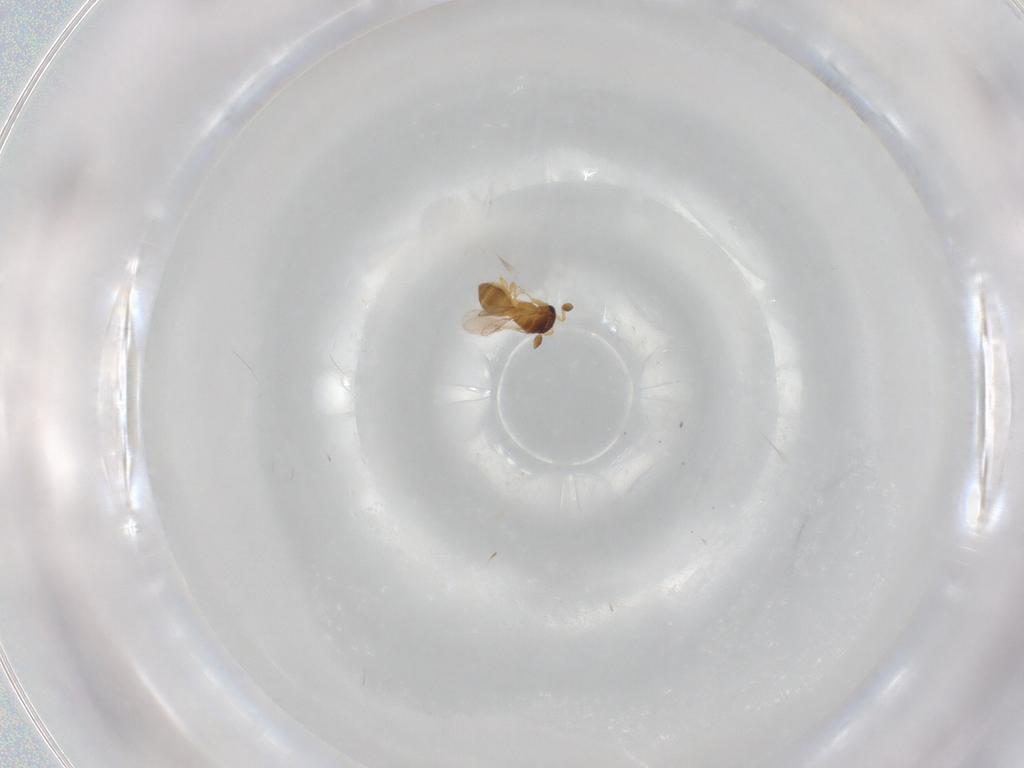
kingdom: Animalia
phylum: Arthropoda
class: Insecta
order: Hymenoptera
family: Scelionidae
